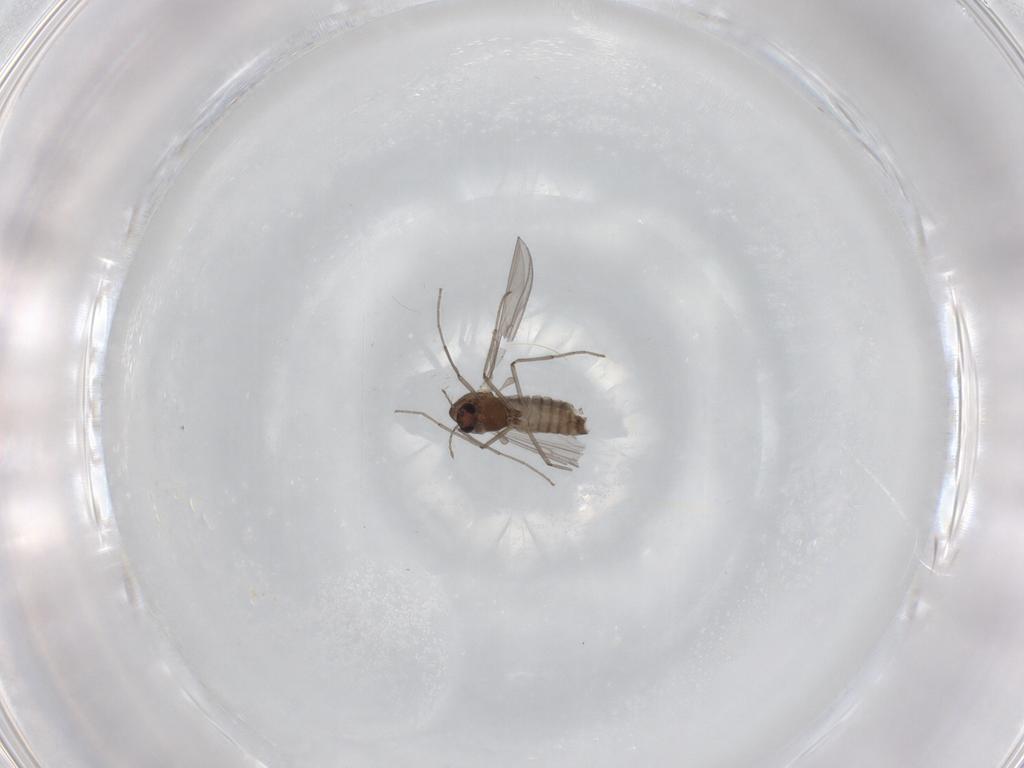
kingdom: Animalia
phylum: Arthropoda
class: Insecta
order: Diptera
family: Chironomidae
